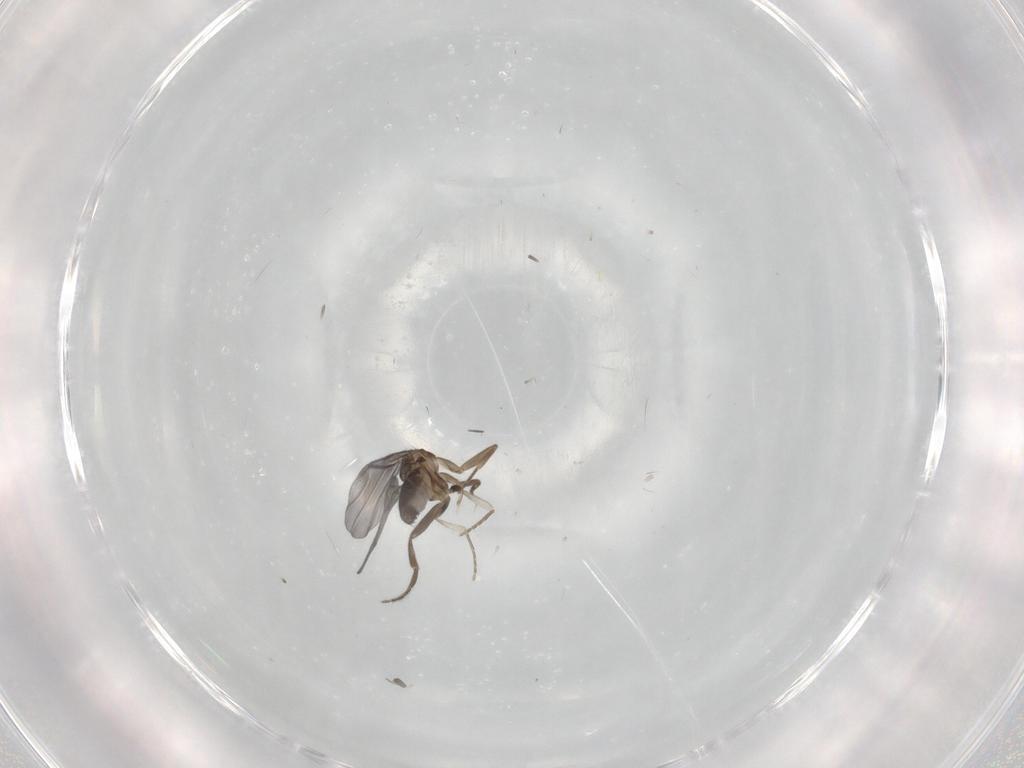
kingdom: Animalia
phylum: Arthropoda
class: Insecta
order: Diptera
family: Phoridae
